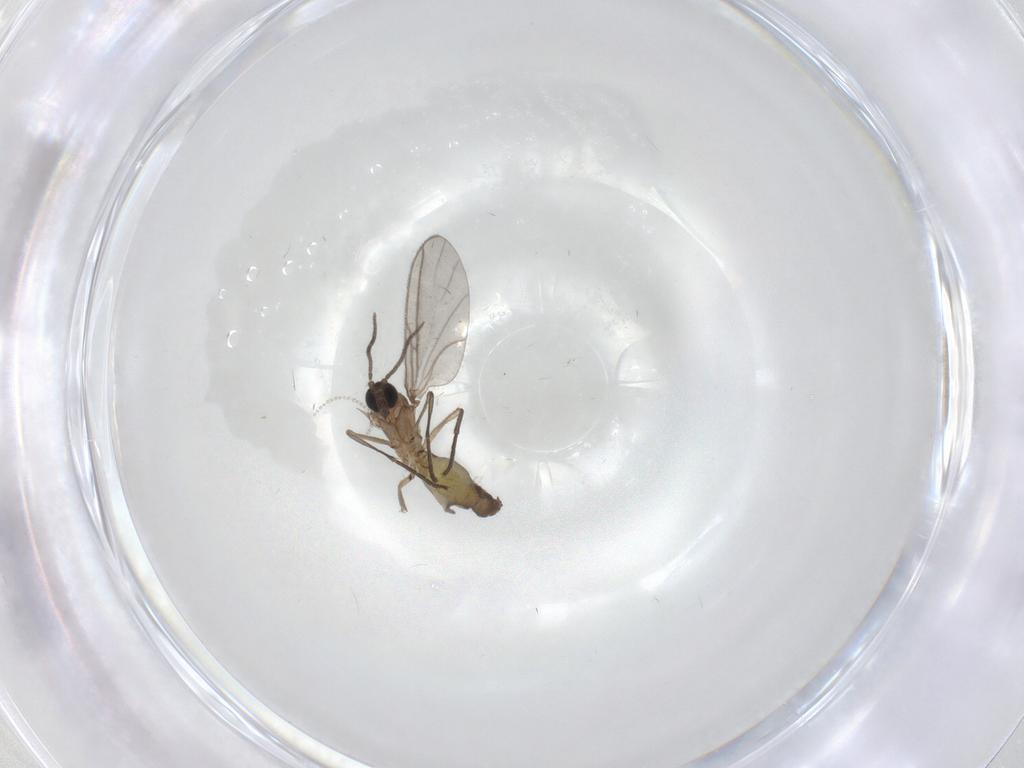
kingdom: Animalia
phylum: Arthropoda
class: Insecta
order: Diptera
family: Sciaridae
